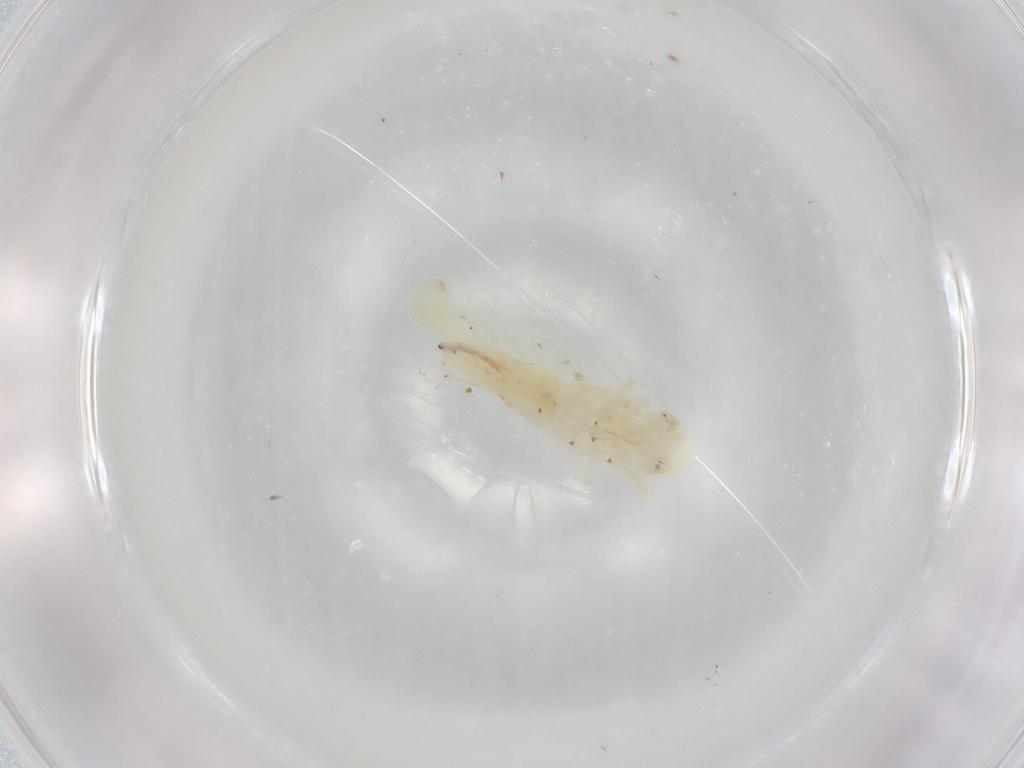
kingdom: Animalia
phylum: Arthropoda
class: Insecta
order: Hemiptera
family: Cicadellidae
